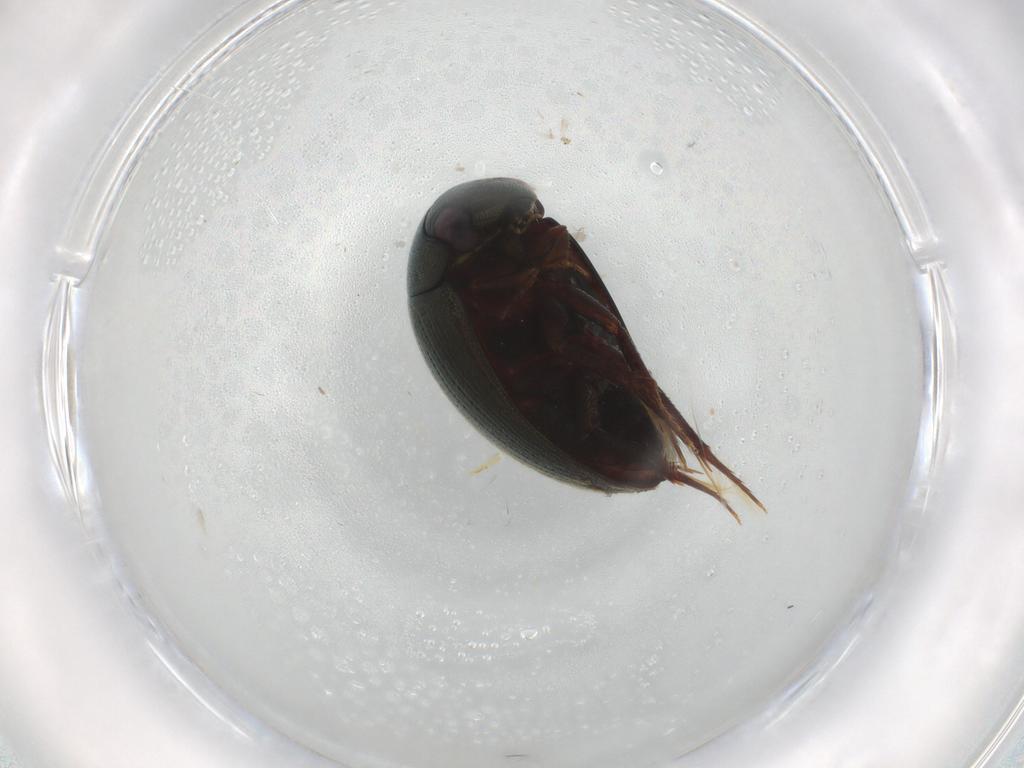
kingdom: Animalia
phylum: Arthropoda
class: Insecta
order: Coleoptera
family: Hydrophilidae
